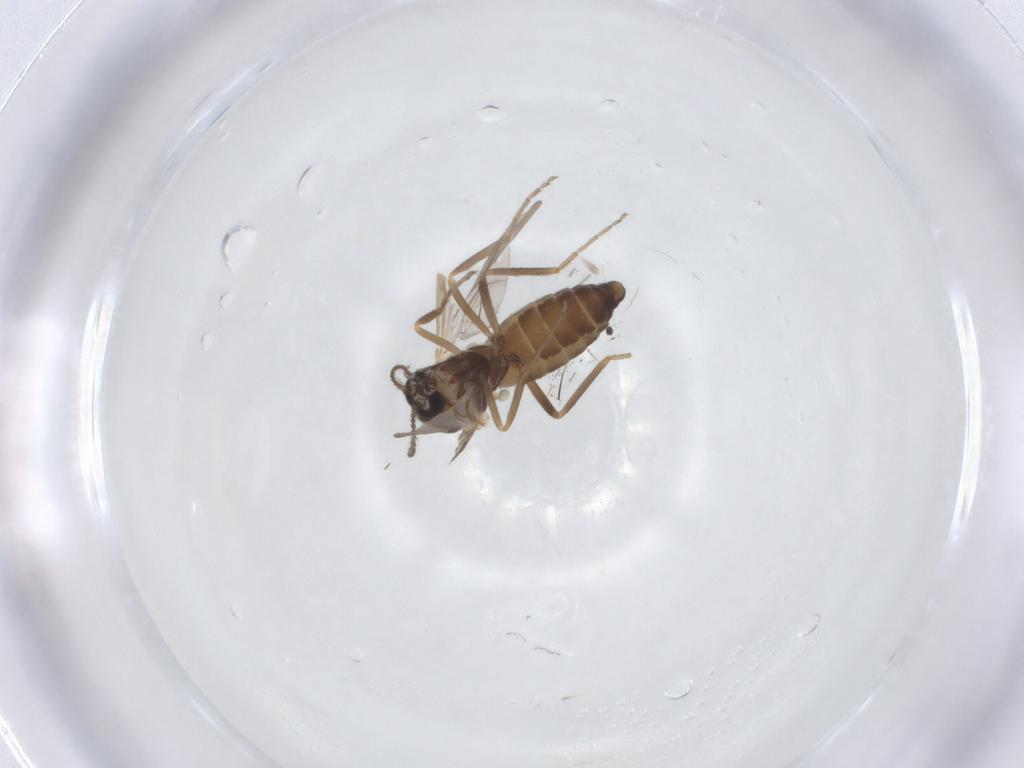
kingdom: Animalia
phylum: Arthropoda
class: Insecta
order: Diptera
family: Ceratopogonidae
